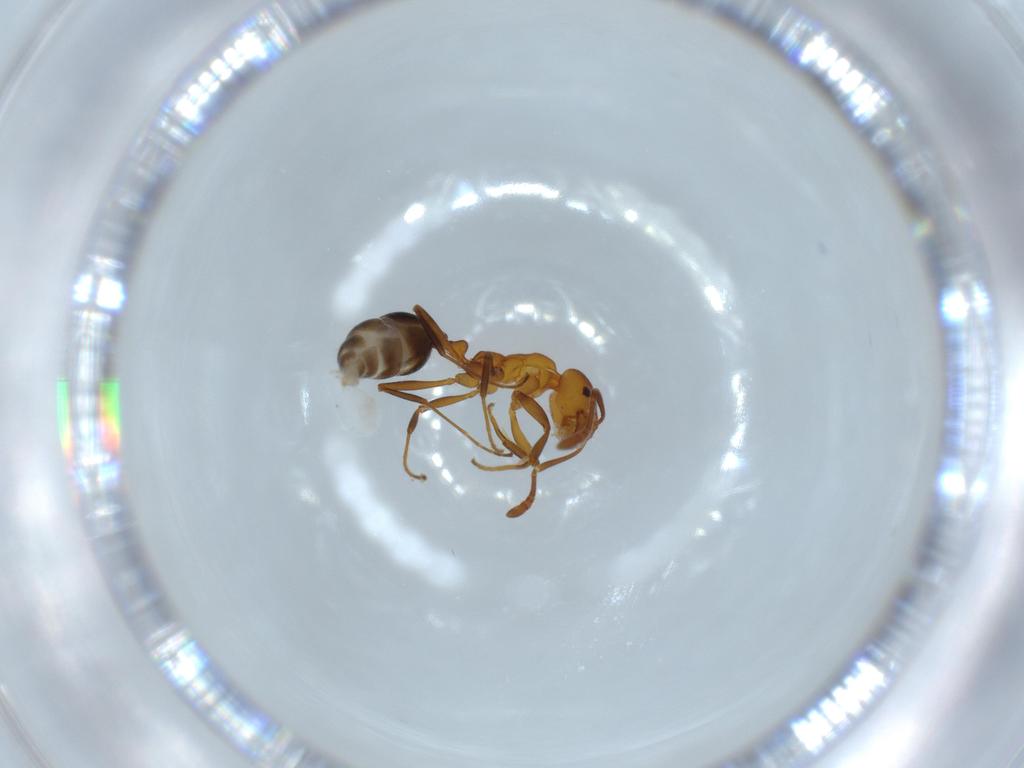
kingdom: Animalia
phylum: Arthropoda
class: Insecta
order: Hymenoptera
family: Formicidae
